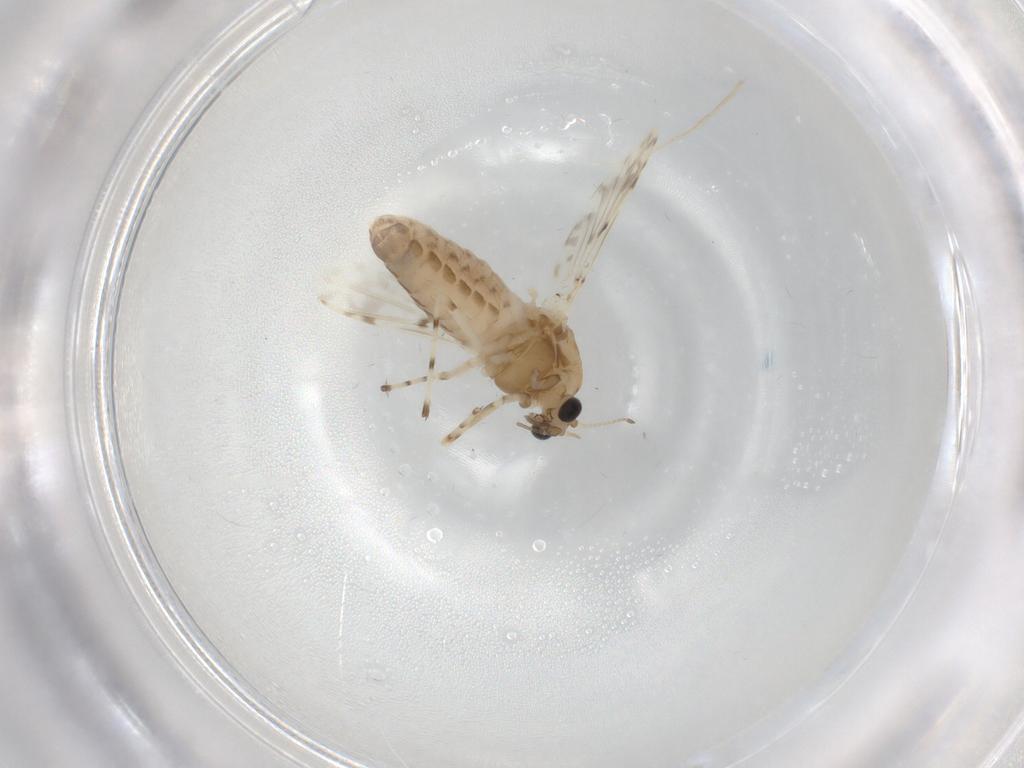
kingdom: Animalia
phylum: Arthropoda
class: Insecta
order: Diptera
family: Chironomidae
